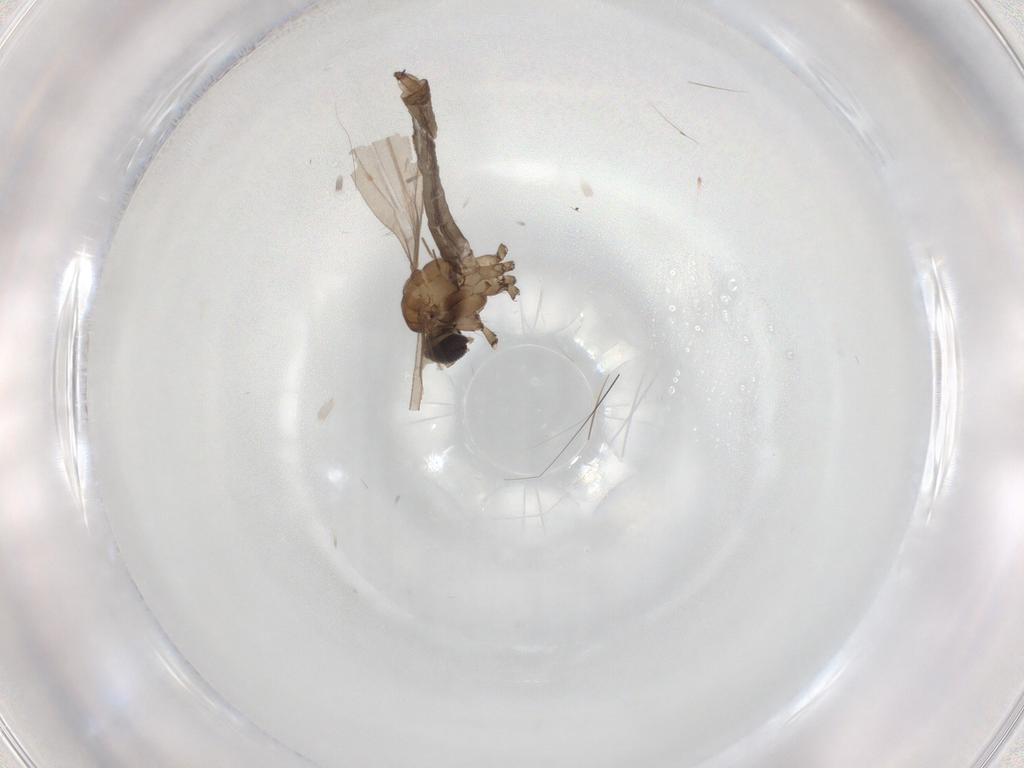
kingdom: Animalia
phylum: Arthropoda
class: Insecta
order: Diptera
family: Limoniidae
